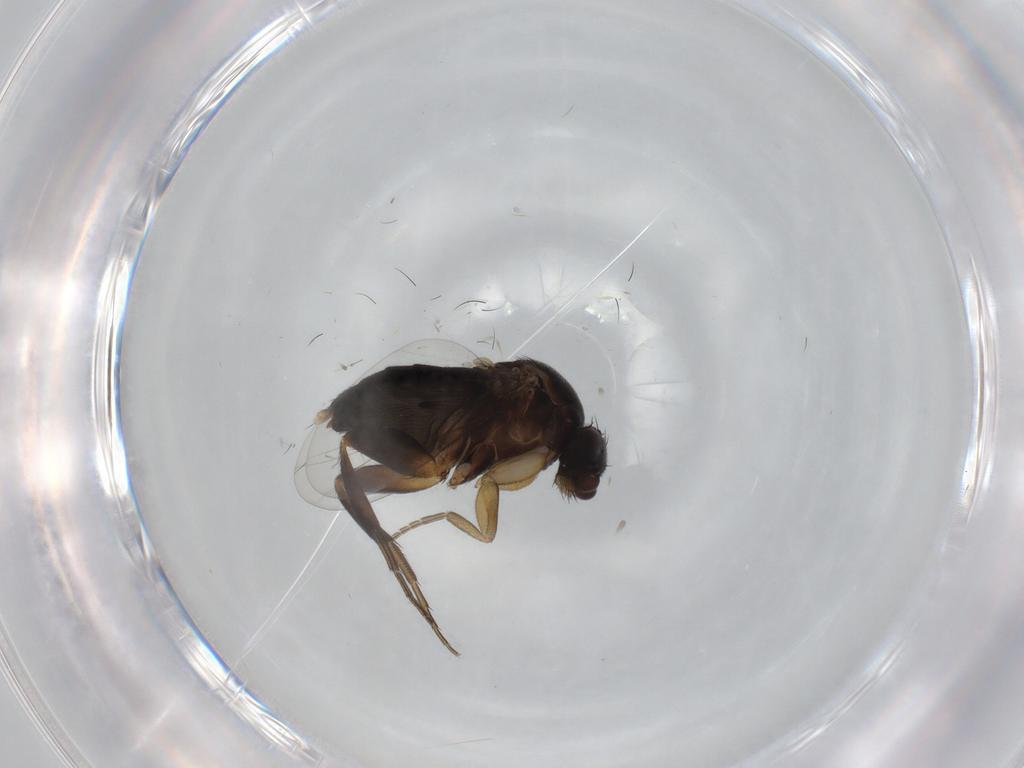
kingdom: Animalia
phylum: Arthropoda
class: Insecta
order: Diptera
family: Phoridae
